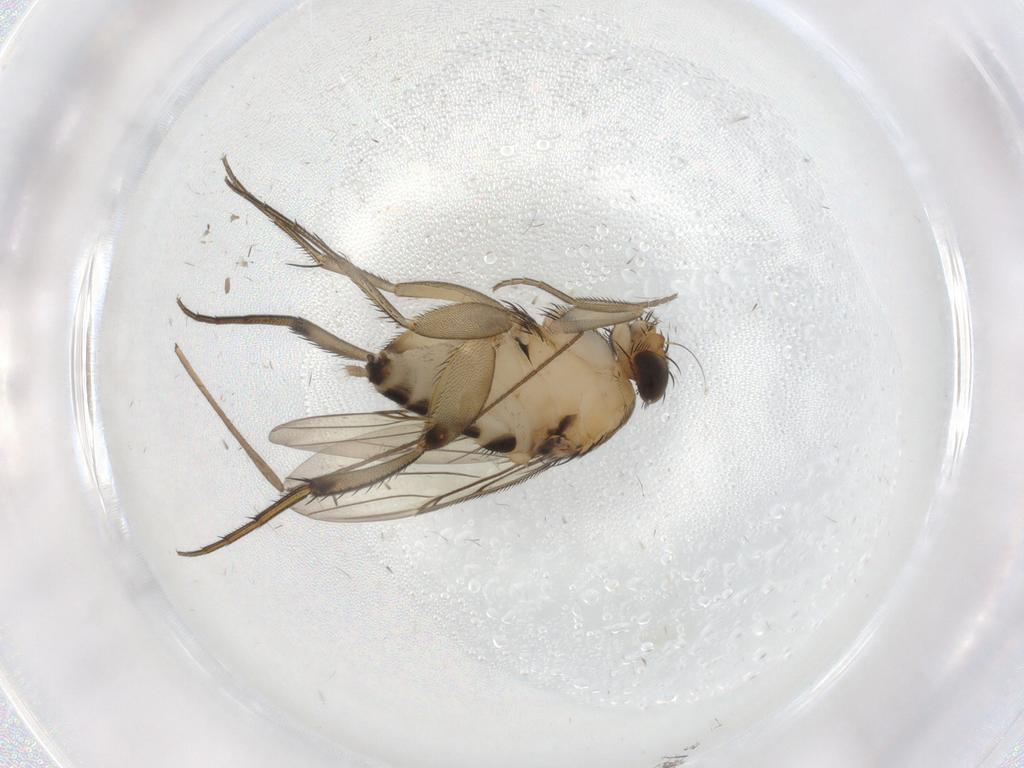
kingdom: Animalia
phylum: Arthropoda
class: Insecta
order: Diptera
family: Phoridae
